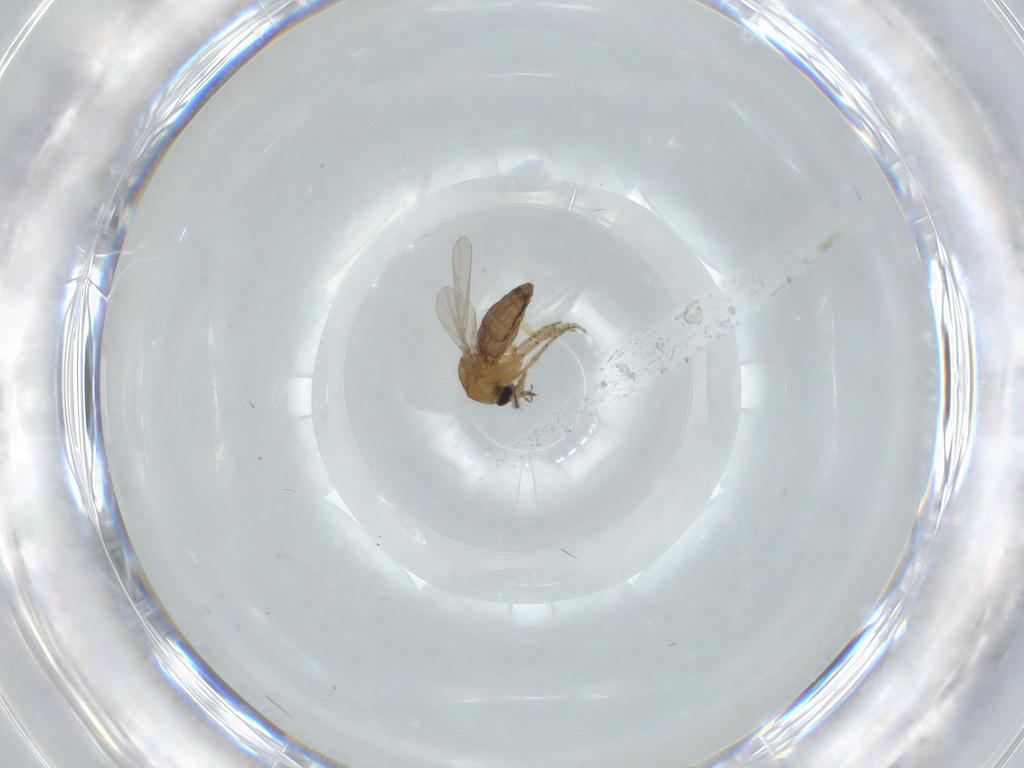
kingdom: Animalia
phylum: Arthropoda
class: Insecta
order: Diptera
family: Ceratopogonidae
